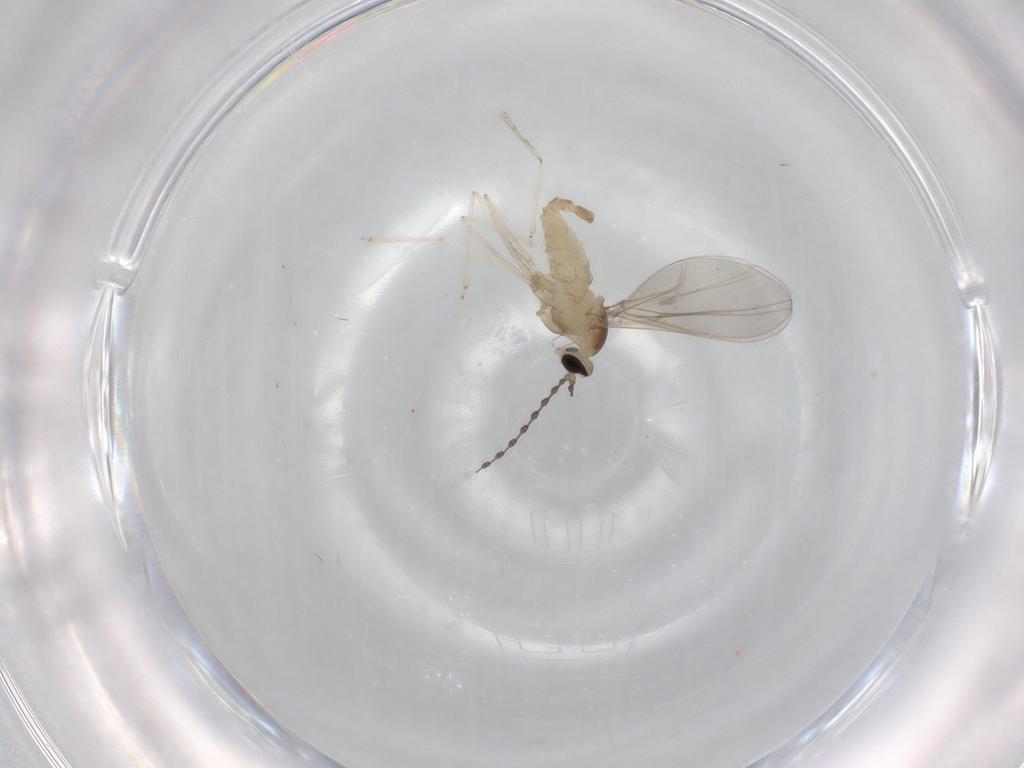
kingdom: Animalia
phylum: Arthropoda
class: Insecta
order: Diptera
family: Cecidomyiidae
